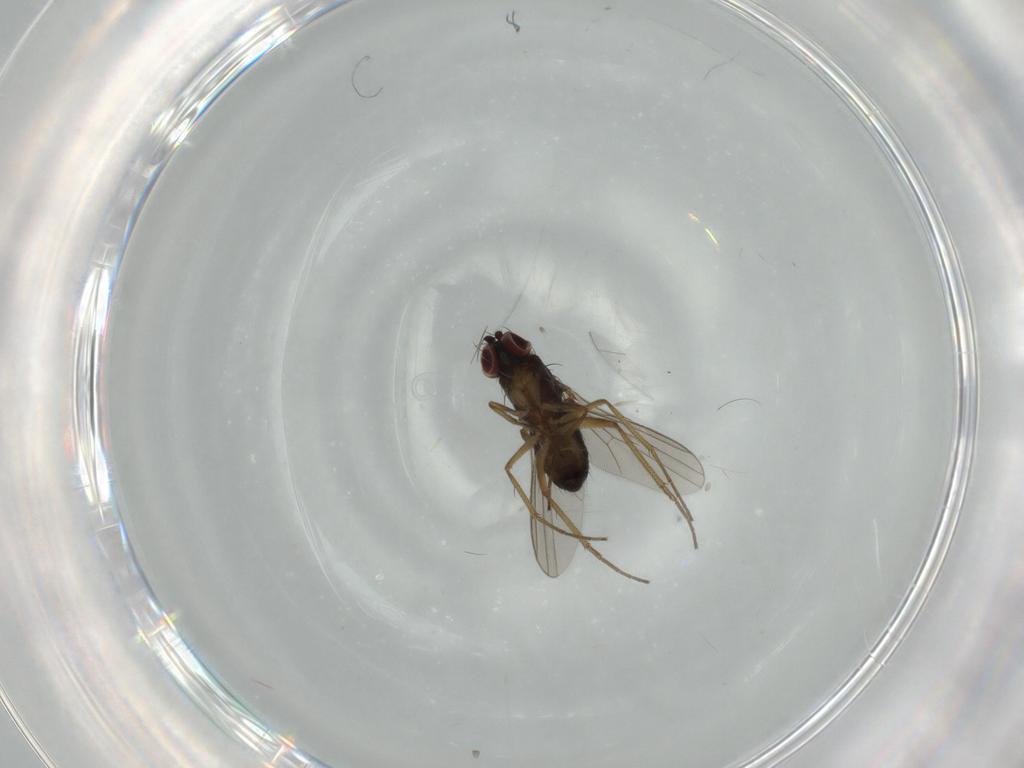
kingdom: Animalia
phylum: Arthropoda
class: Insecta
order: Diptera
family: Dolichopodidae
